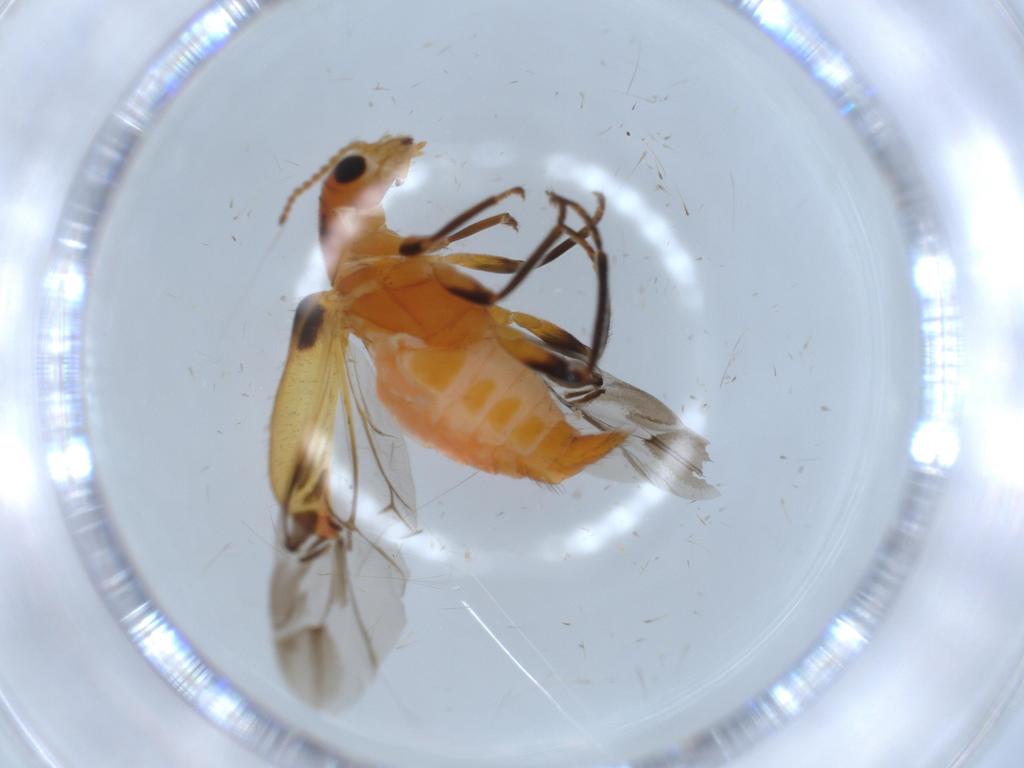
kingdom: Animalia
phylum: Arthropoda
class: Insecta
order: Coleoptera
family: Melyridae
